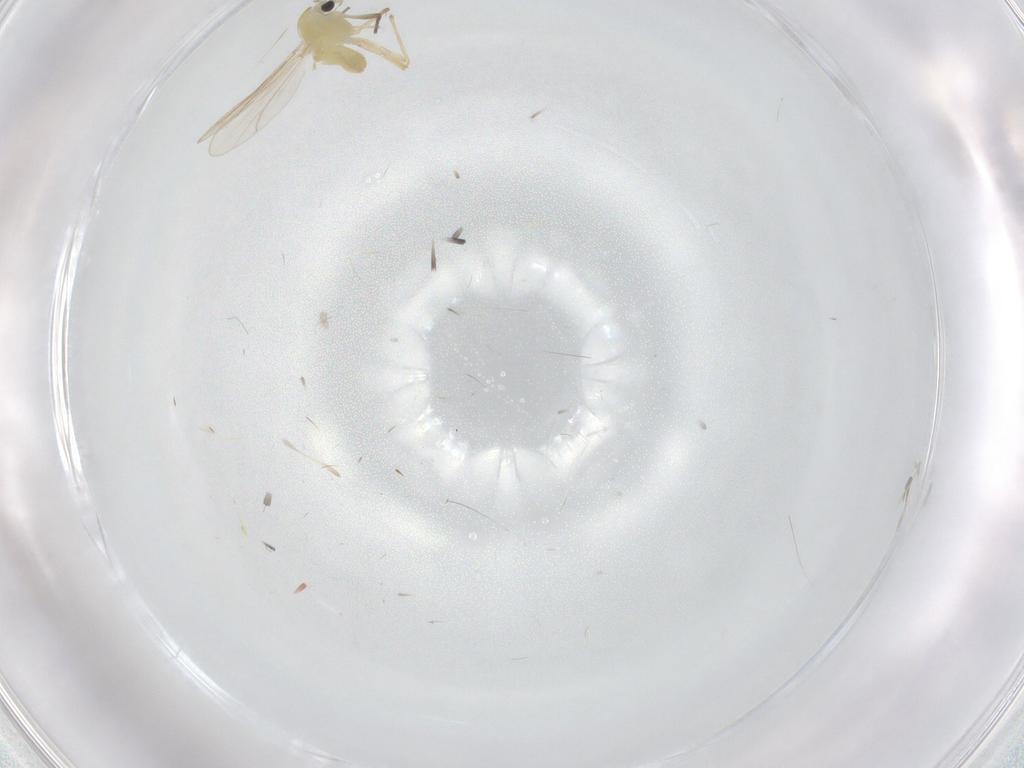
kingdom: Animalia
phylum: Arthropoda
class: Insecta
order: Diptera
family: Chironomidae
